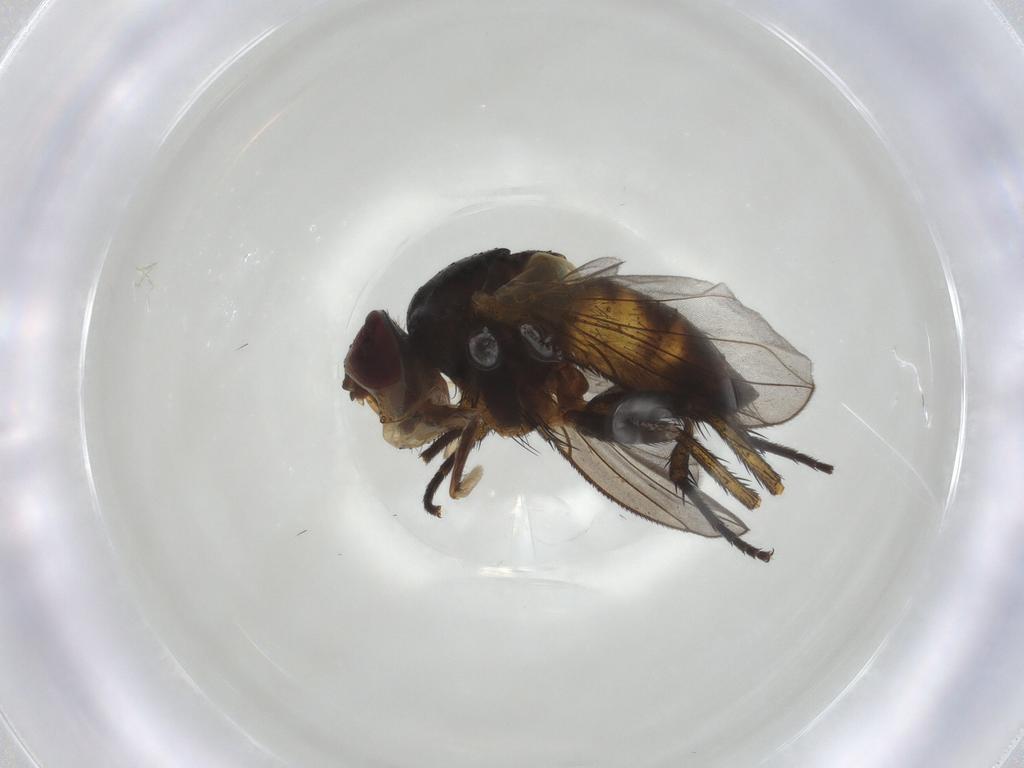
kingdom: Animalia
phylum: Arthropoda
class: Insecta
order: Diptera
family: Tachinidae
